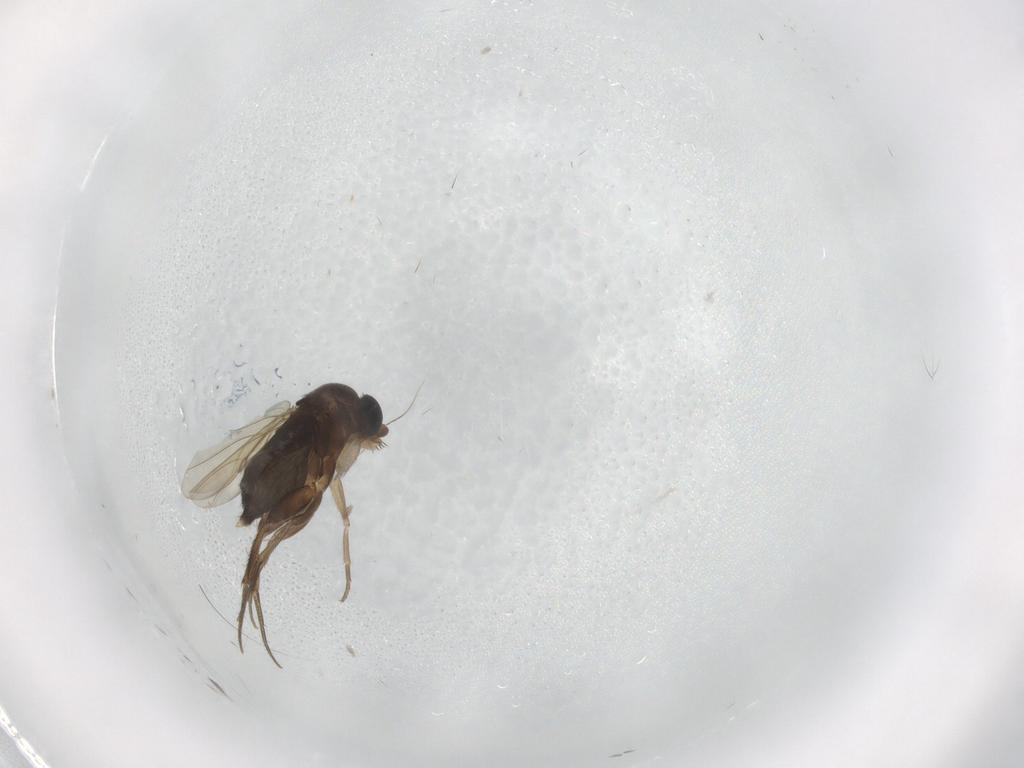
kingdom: Animalia
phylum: Arthropoda
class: Insecta
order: Diptera
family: Phoridae
